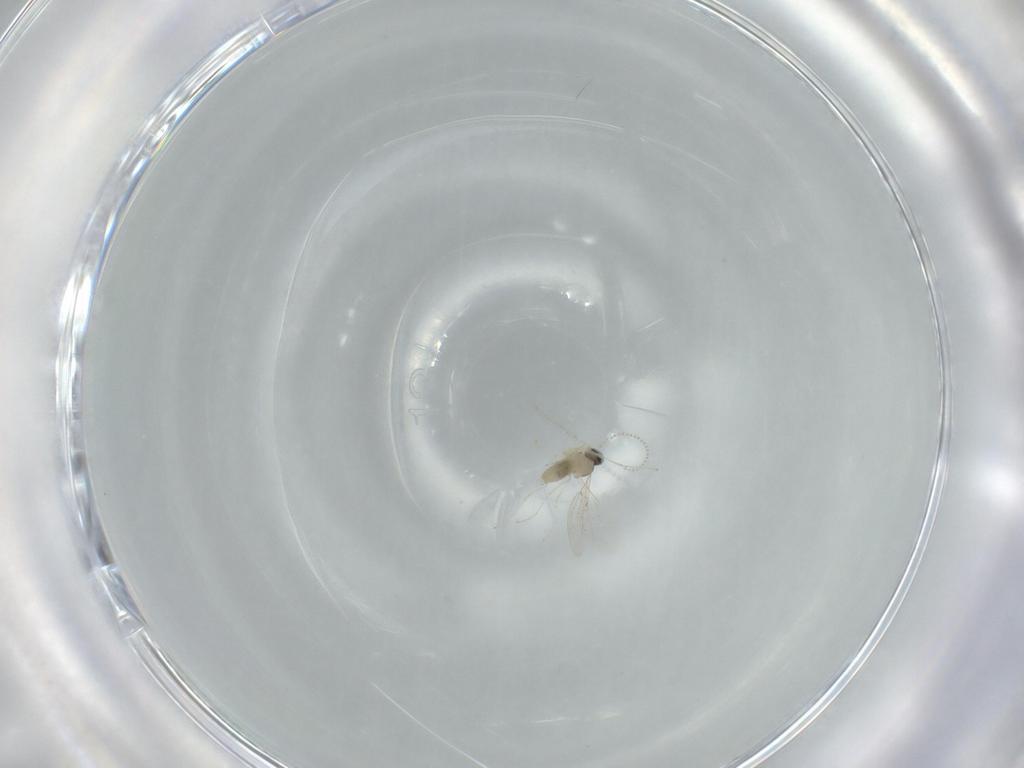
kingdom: Animalia
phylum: Arthropoda
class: Insecta
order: Diptera
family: Cecidomyiidae
